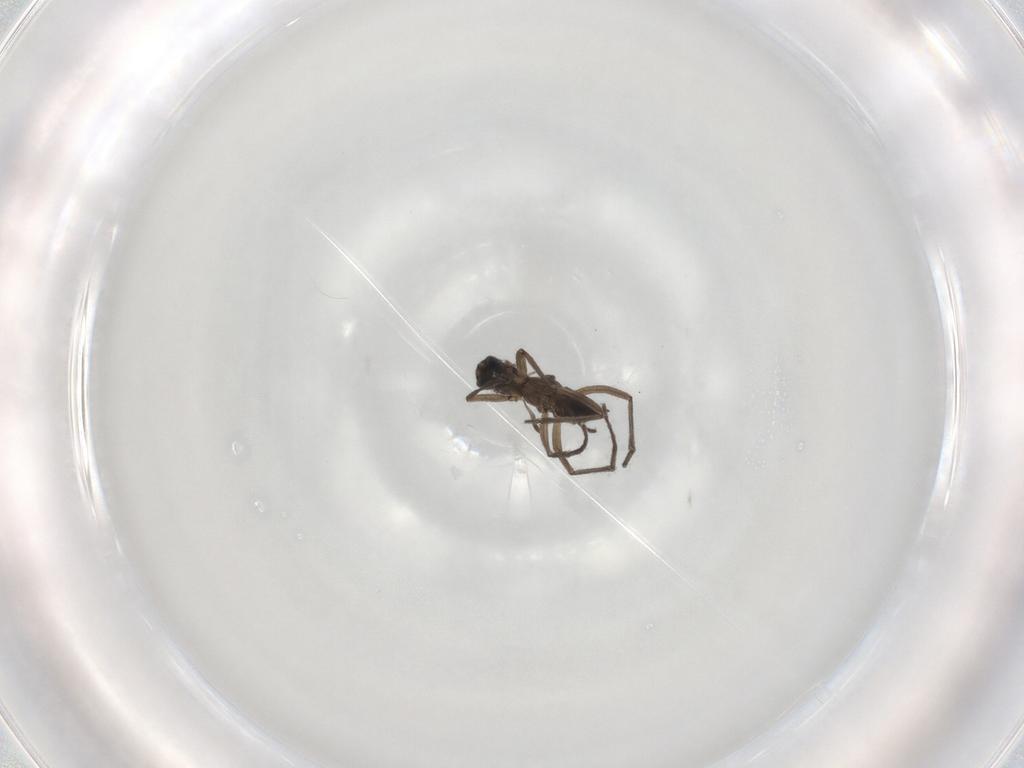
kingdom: Animalia
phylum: Arthropoda
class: Insecta
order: Diptera
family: Sciaridae
